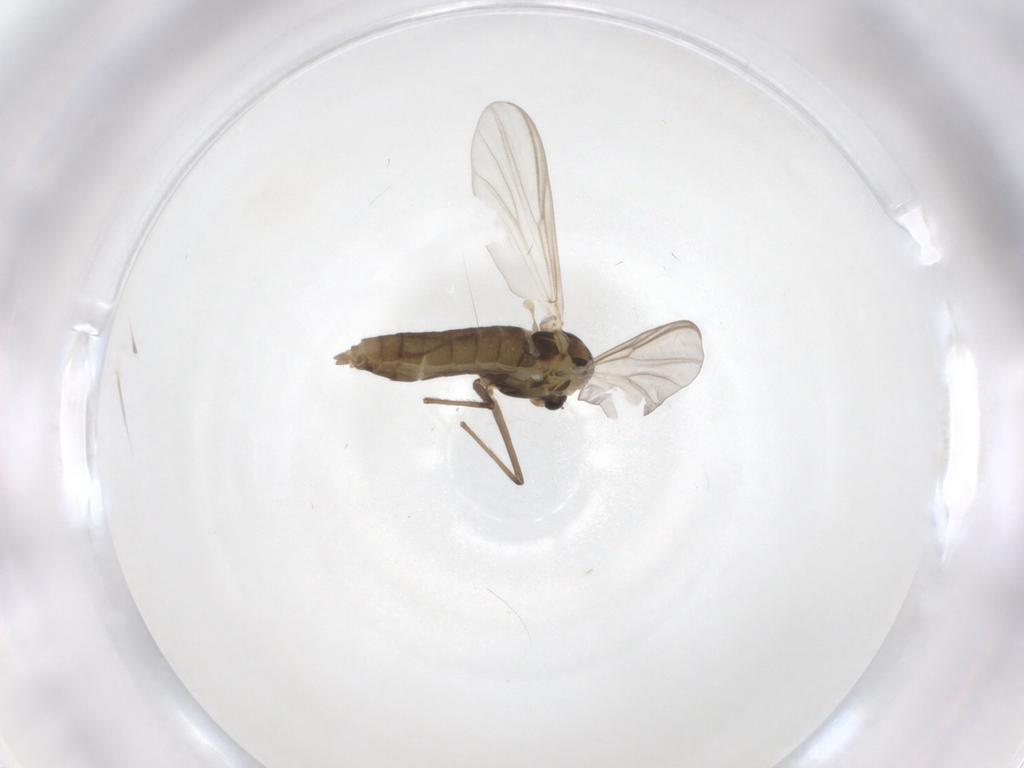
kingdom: Animalia
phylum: Arthropoda
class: Insecta
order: Diptera
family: Chironomidae
